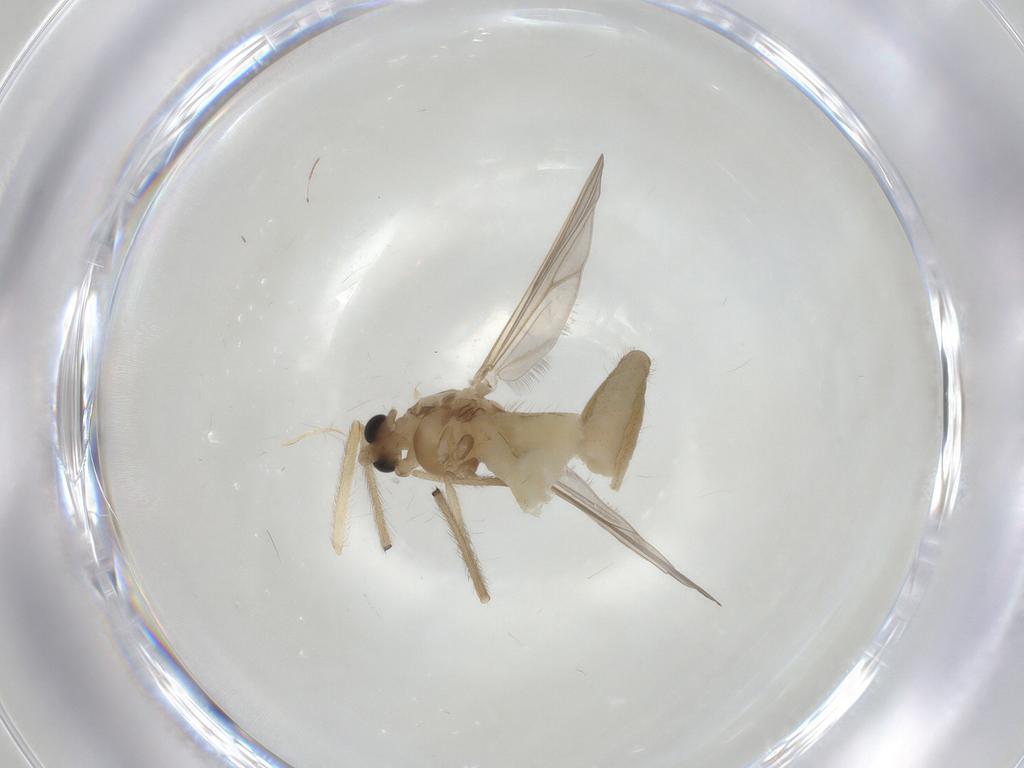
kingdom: Animalia
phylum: Arthropoda
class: Insecta
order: Diptera
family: Chironomidae
